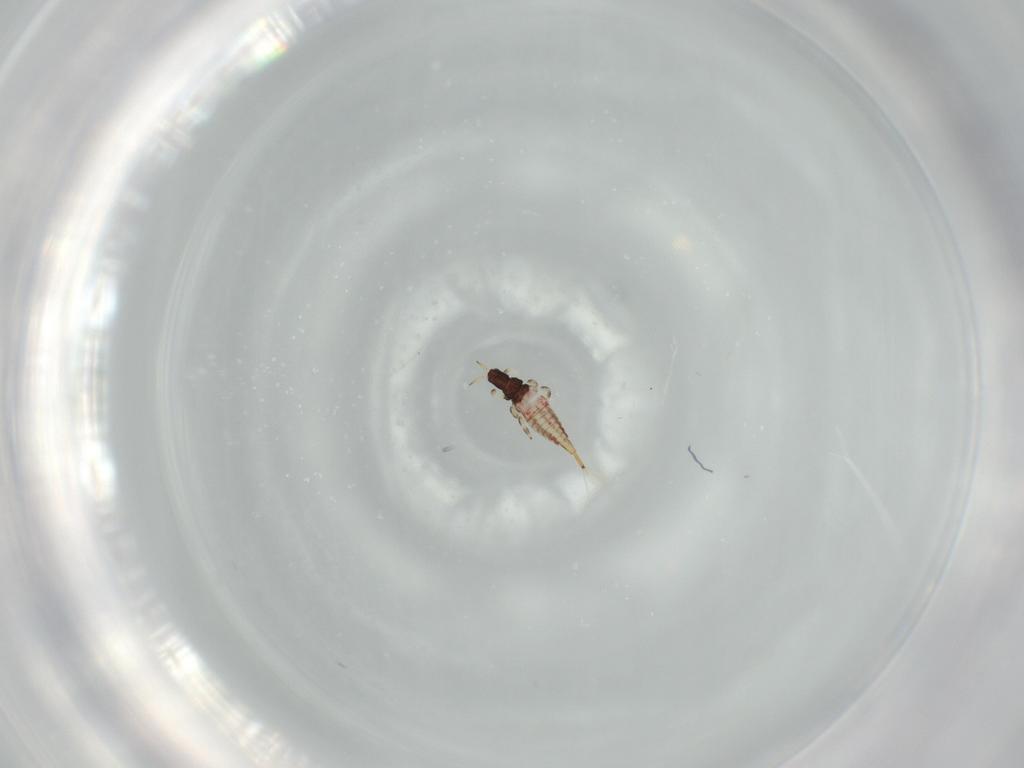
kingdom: Animalia
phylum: Arthropoda
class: Insecta
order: Thysanoptera
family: Phlaeothripidae
